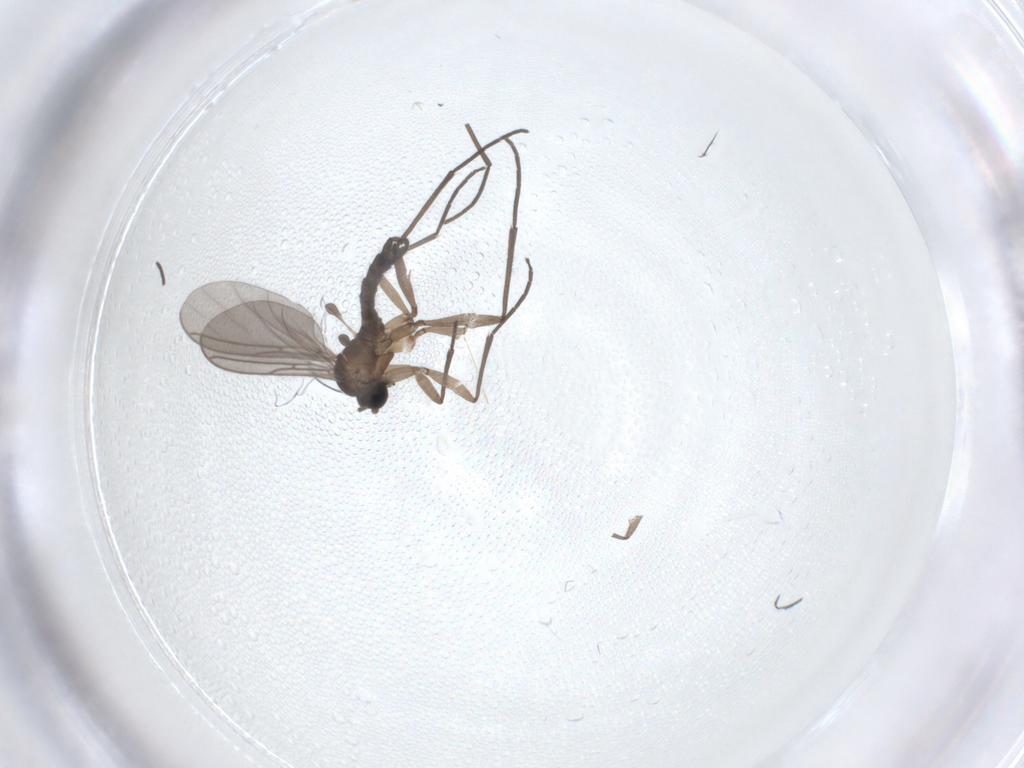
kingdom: Animalia
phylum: Arthropoda
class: Insecta
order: Diptera
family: Sciaridae
